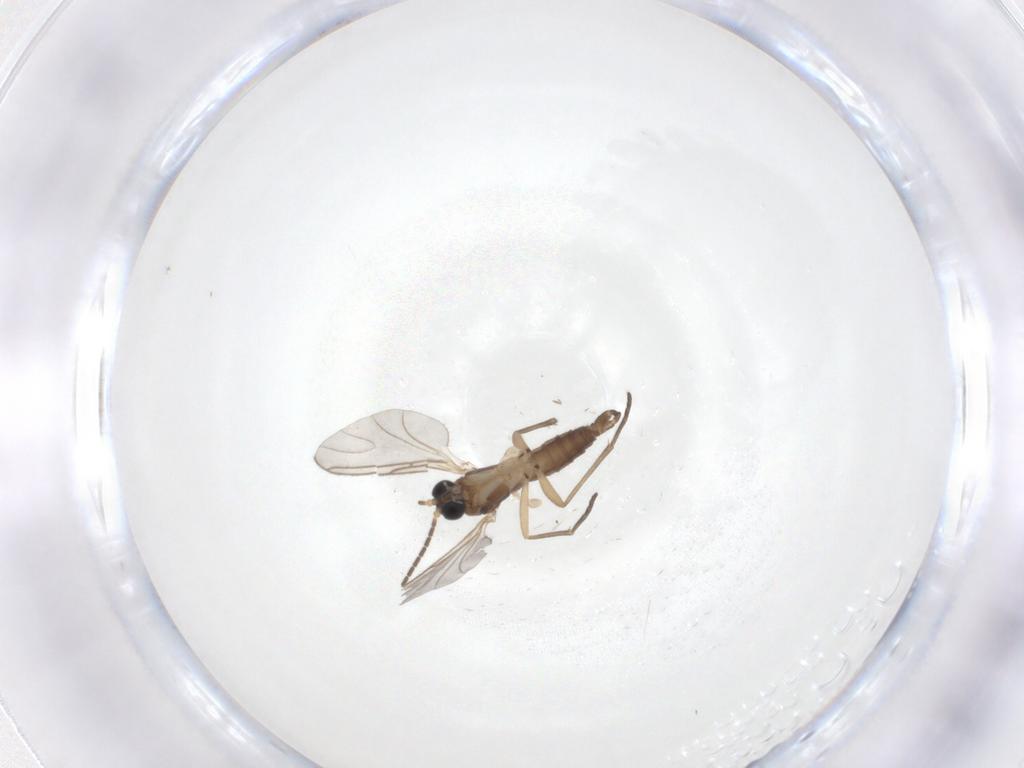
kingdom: Animalia
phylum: Arthropoda
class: Insecta
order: Diptera
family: Sciaridae
